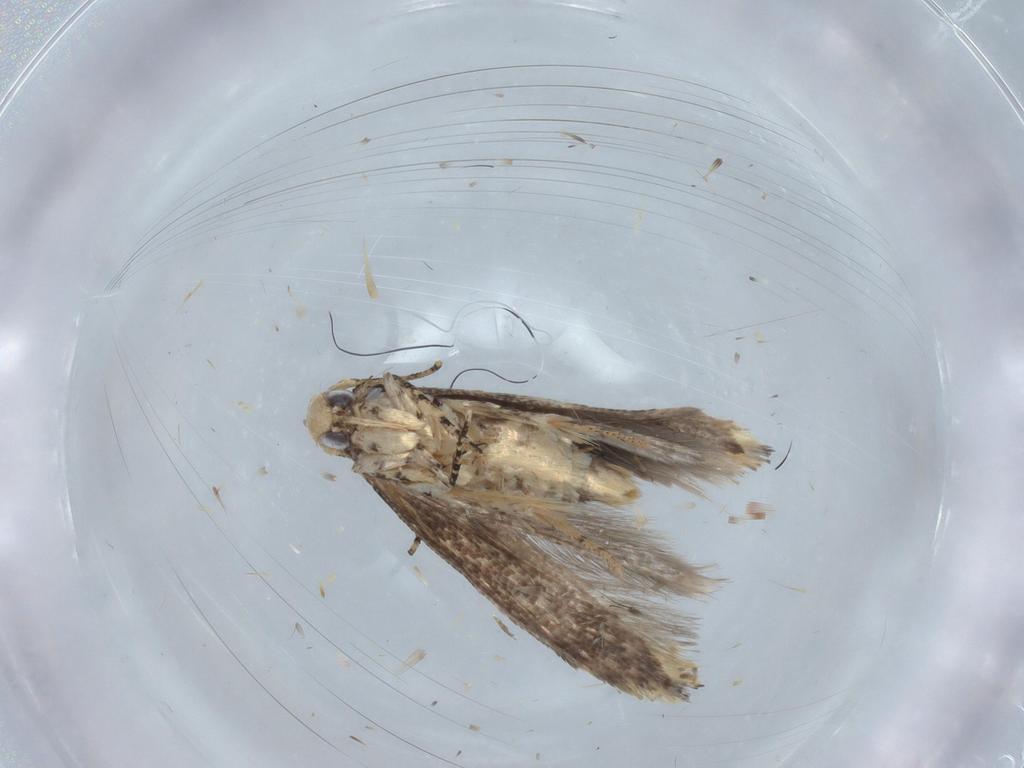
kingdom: Animalia
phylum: Arthropoda
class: Insecta
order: Lepidoptera
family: Gelechiidae
